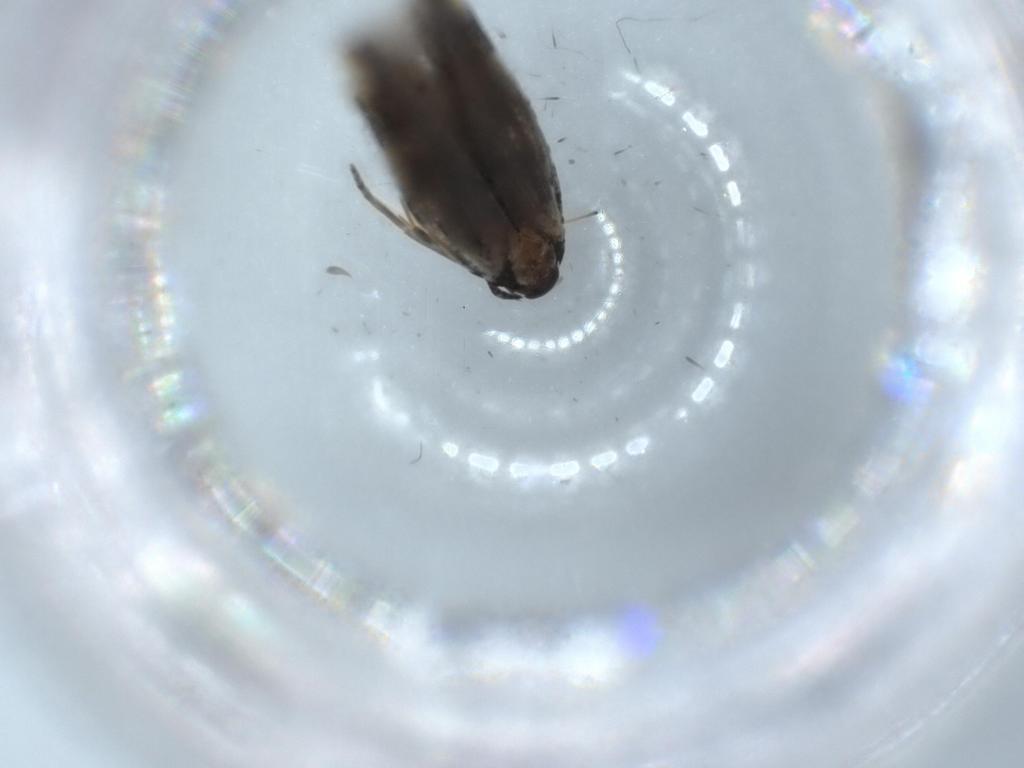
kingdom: Animalia
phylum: Arthropoda
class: Insecta
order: Lepidoptera
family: Cosmopterigidae
